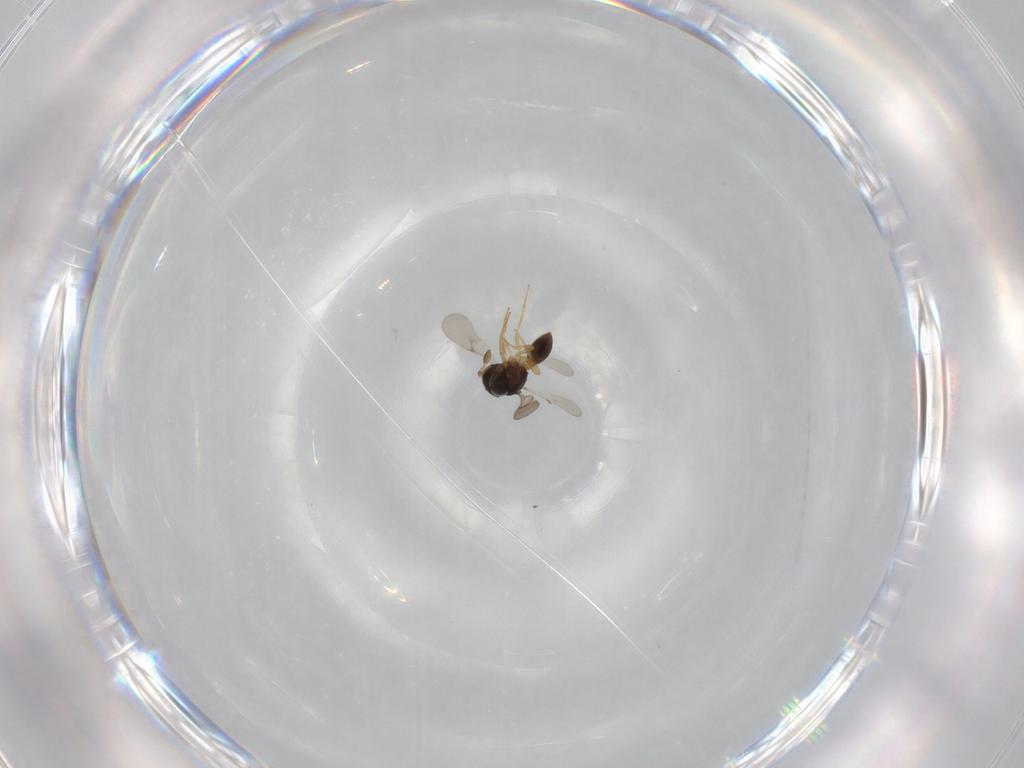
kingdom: Animalia
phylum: Arthropoda
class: Insecta
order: Hymenoptera
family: Scelionidae
